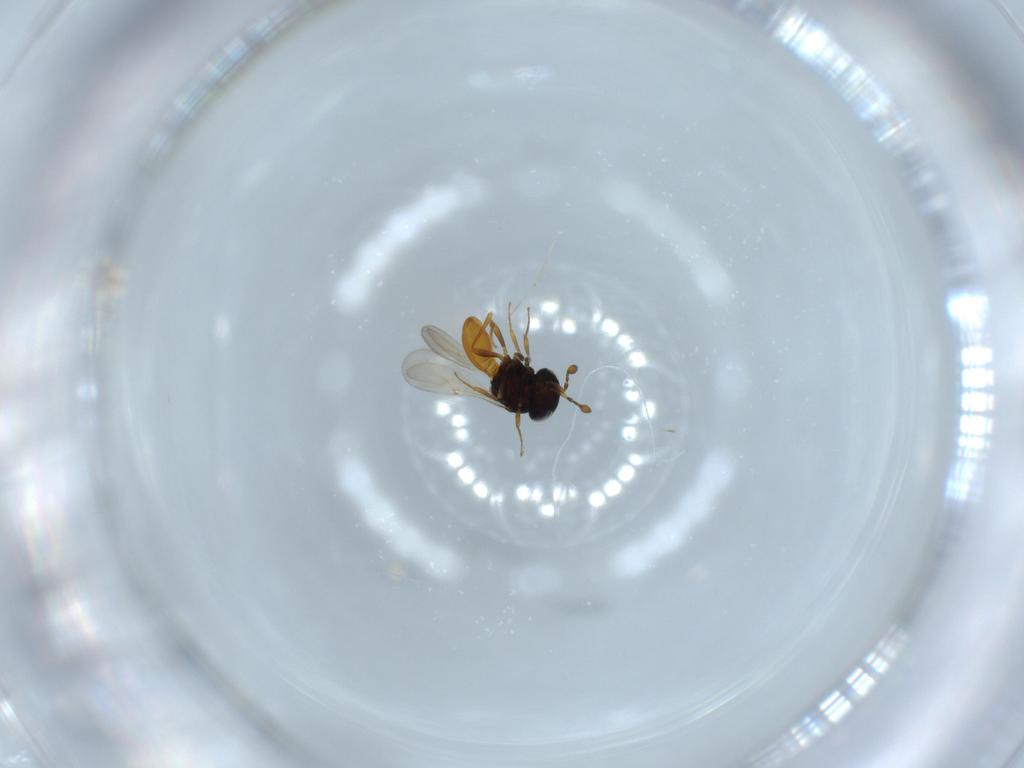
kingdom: Animalia
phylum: Arthropoda
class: Insecta
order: Hymenoptera
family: Scelionidae
